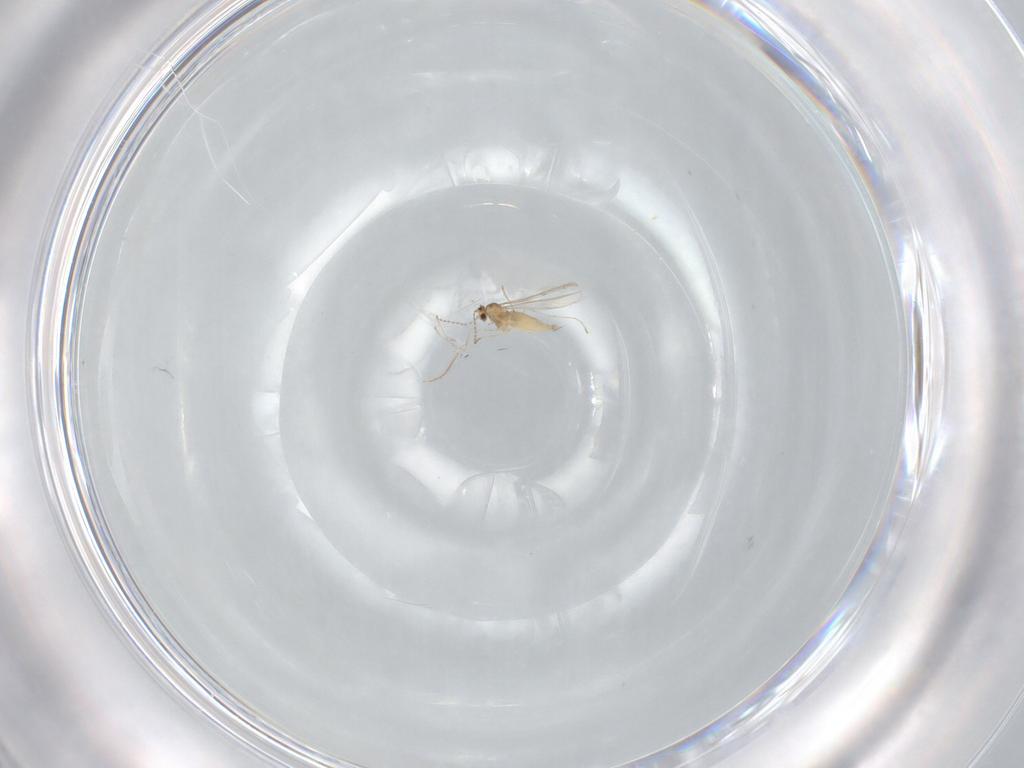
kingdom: Animalia
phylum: Arthropoda
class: Insecta
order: Diptera
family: Cecidomyiidae
